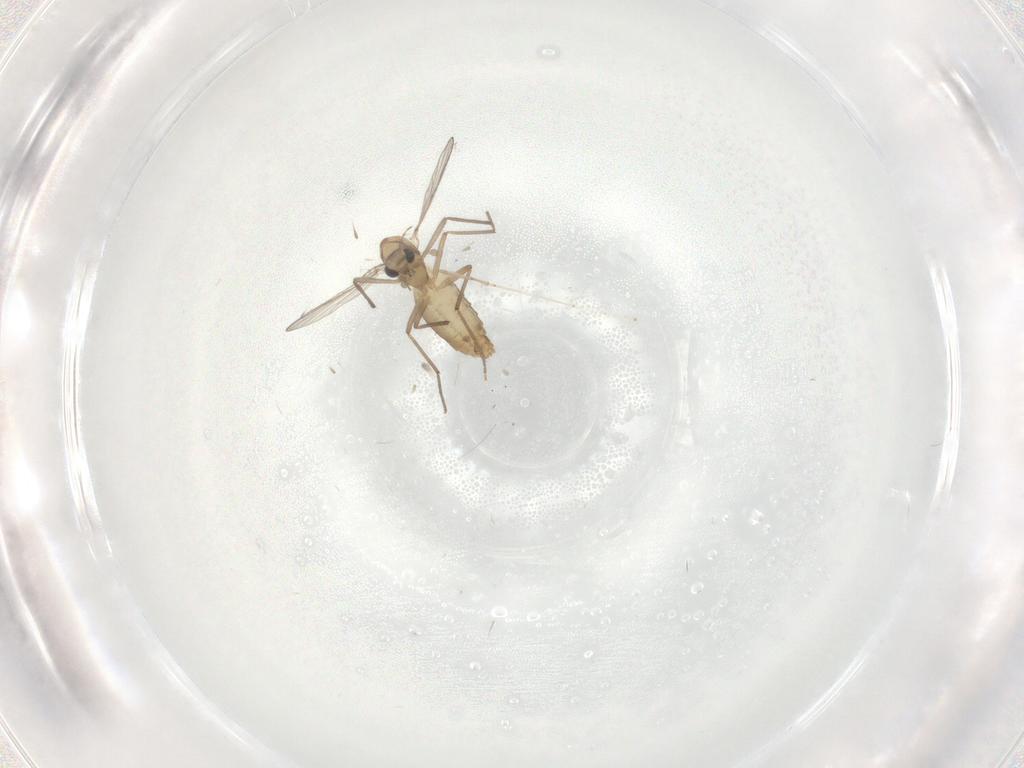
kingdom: Animalia
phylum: Arthropoda
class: Insecta
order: Diptera
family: Chironomidae
